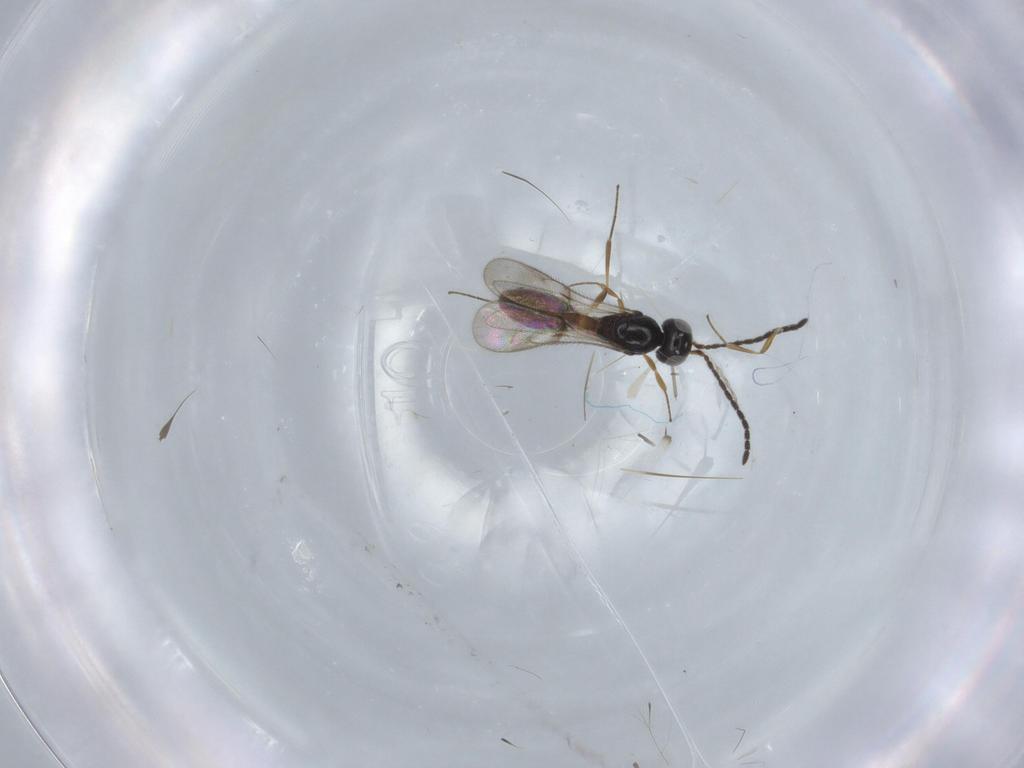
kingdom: Animalia
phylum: Arthropoda
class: Insecta
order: Hymenoptera
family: Scelionidae
